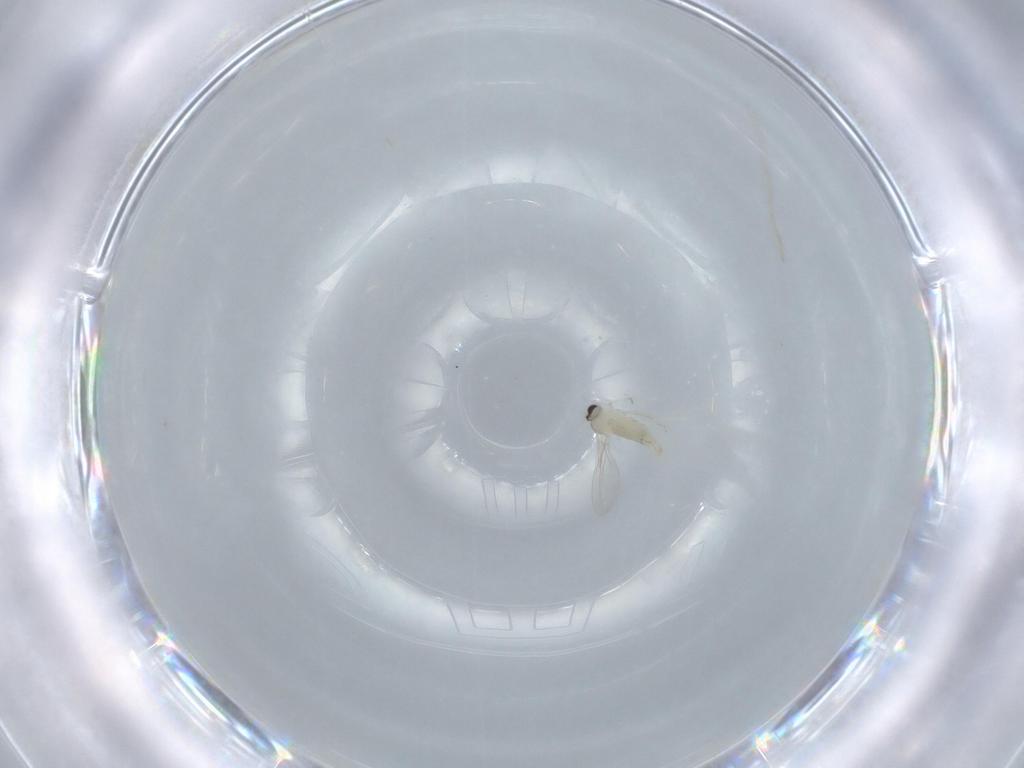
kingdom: Animalia
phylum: Arthropoda
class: Insecta
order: Diptera
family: Cecidomyiidae
